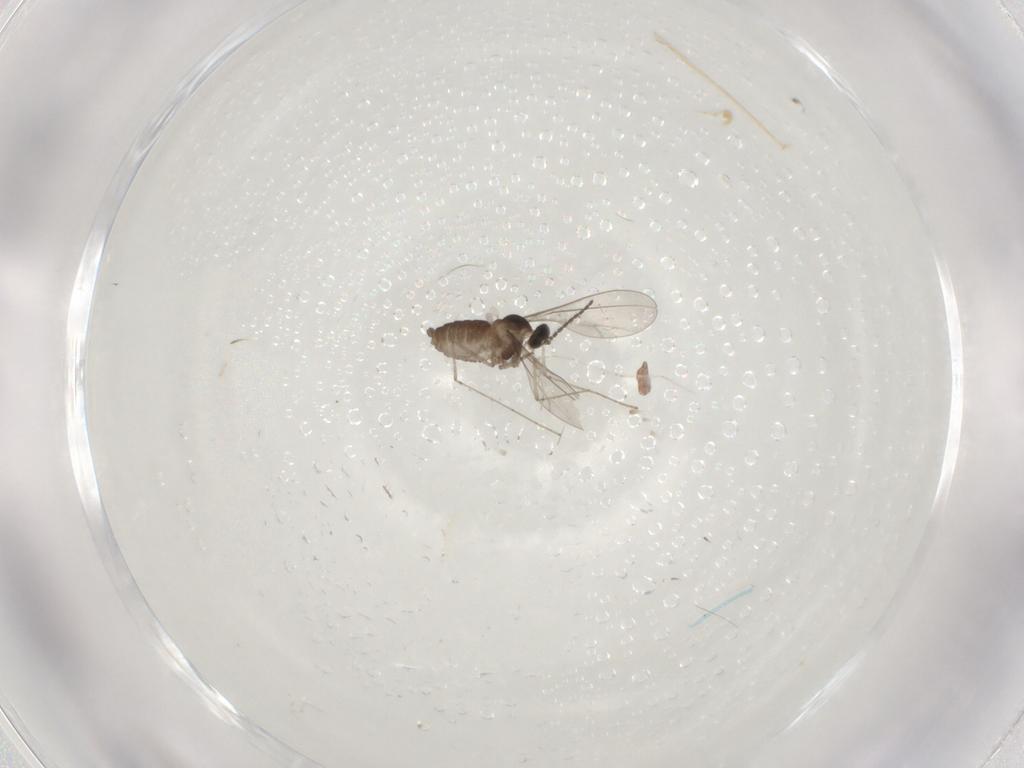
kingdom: Animalia
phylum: Arthropoda
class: Insecta
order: Diptera
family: Cecidomyiidae
